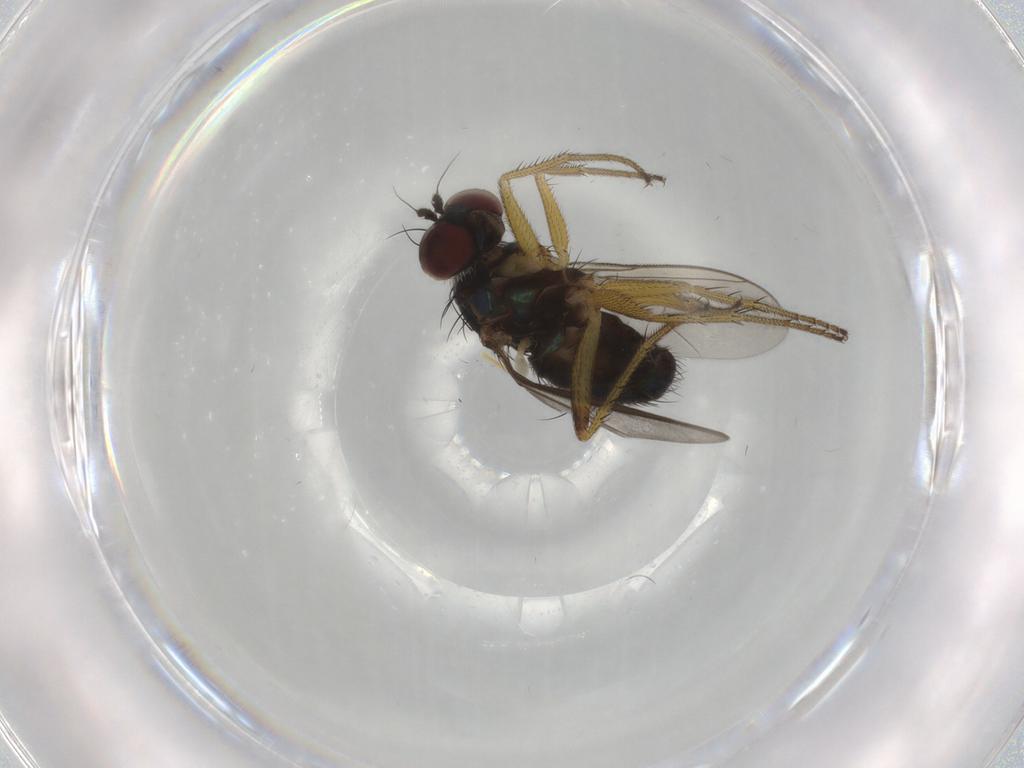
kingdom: Animalia
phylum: Arthropoda
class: Insecta
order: Diptera
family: Dolichopodidae
